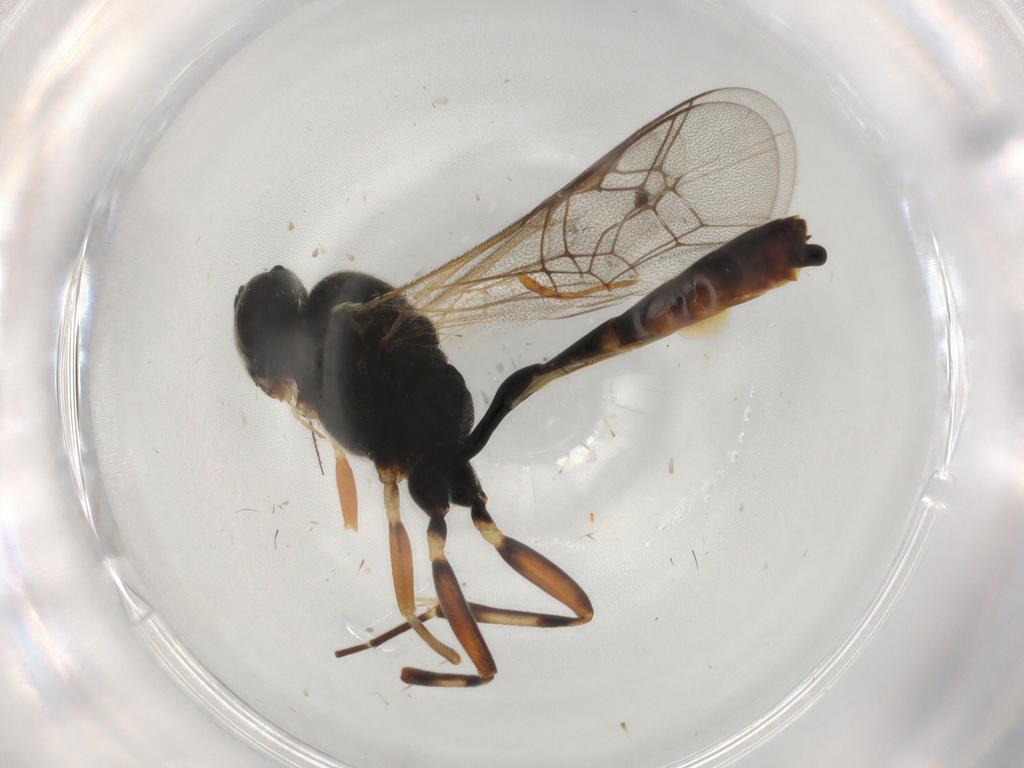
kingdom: Animalia
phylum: Arthropoda
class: Insecta
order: Hymenoptera
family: Ichneumonidae
